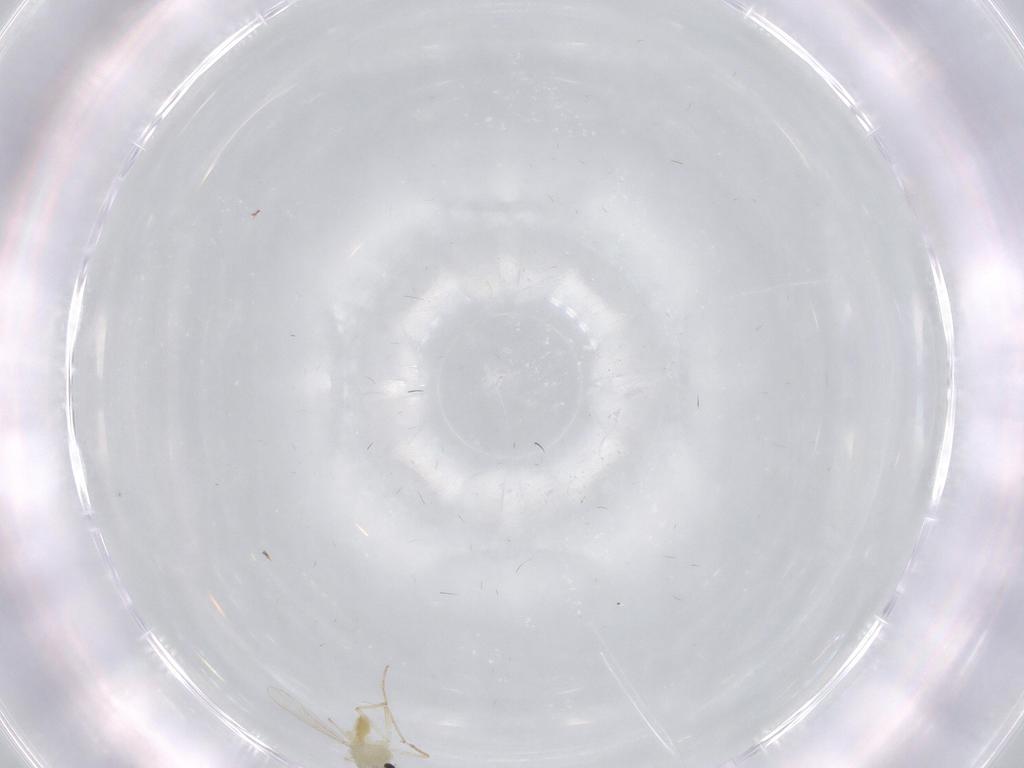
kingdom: Animalia
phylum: Arthropoda
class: Insecta
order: Diptera
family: Chironomidae
